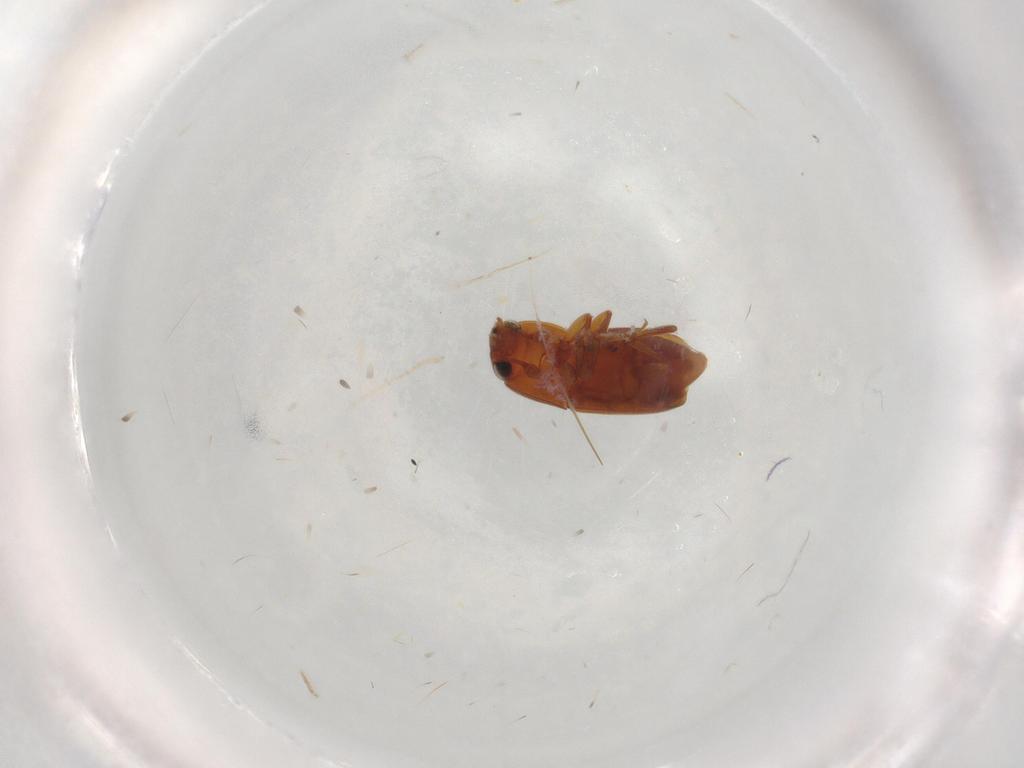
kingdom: Animalia
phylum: Arthropoda
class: Insecta
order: Coleoptera
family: Nitidulidae
